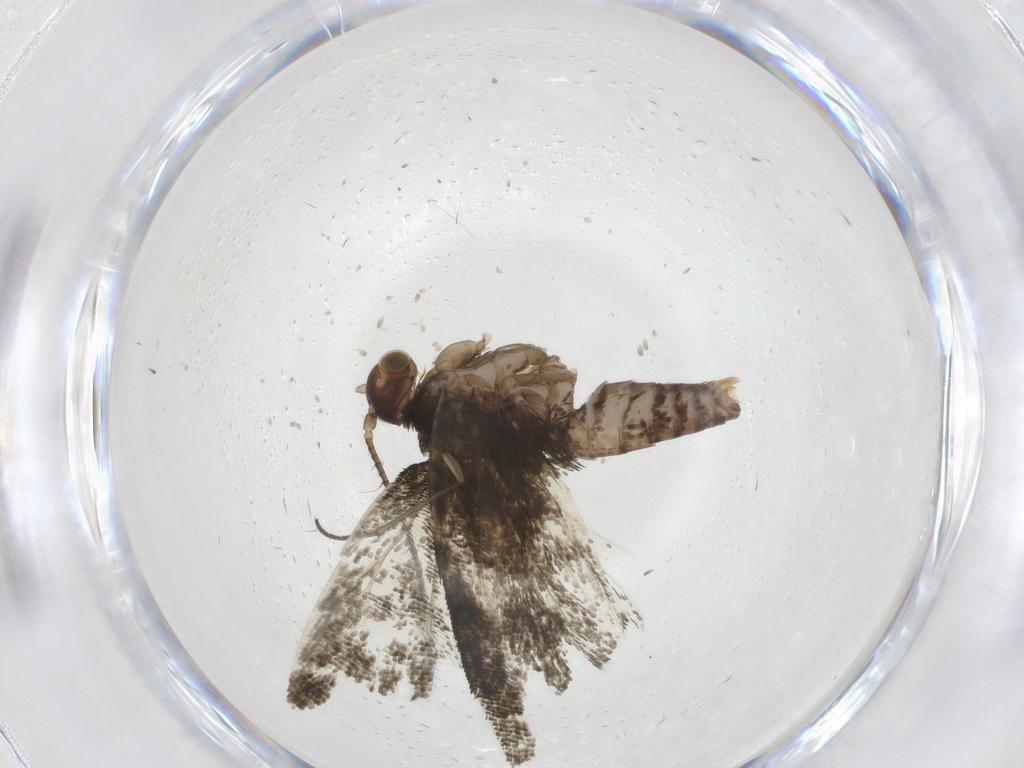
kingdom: Animalia
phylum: Arthropoda
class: Insecta
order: Lepidoptera
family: Tortricidae
